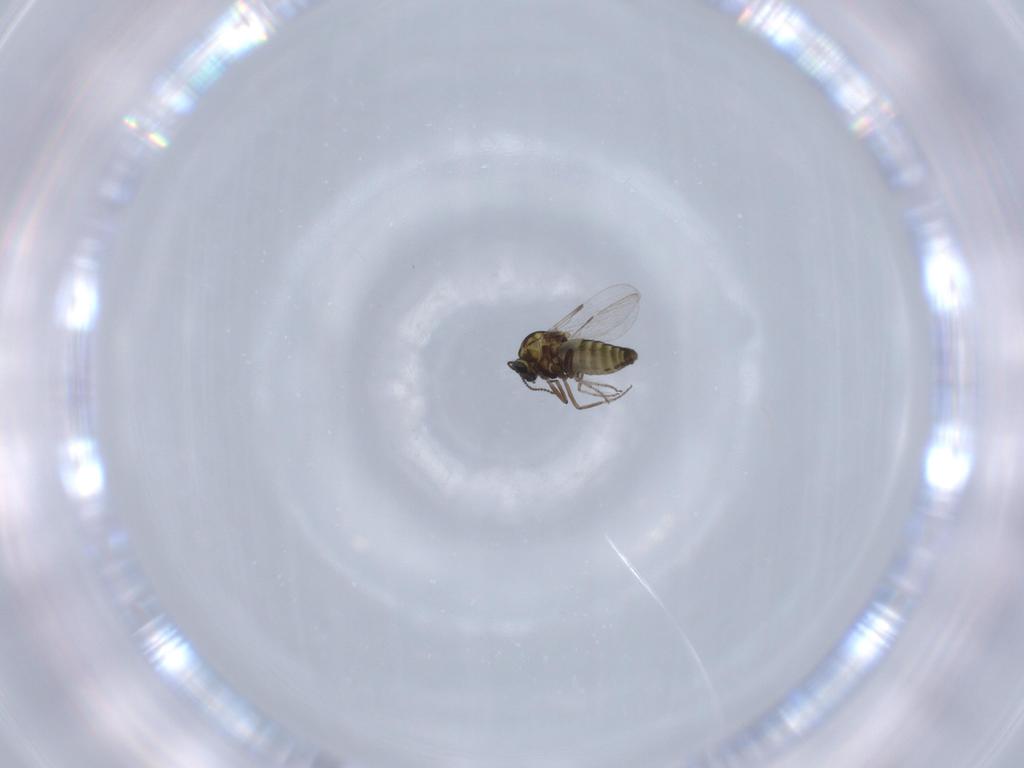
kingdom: Animalia
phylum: Arthropoda
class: Insecta
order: Diptera
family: Ceratopogonidae
